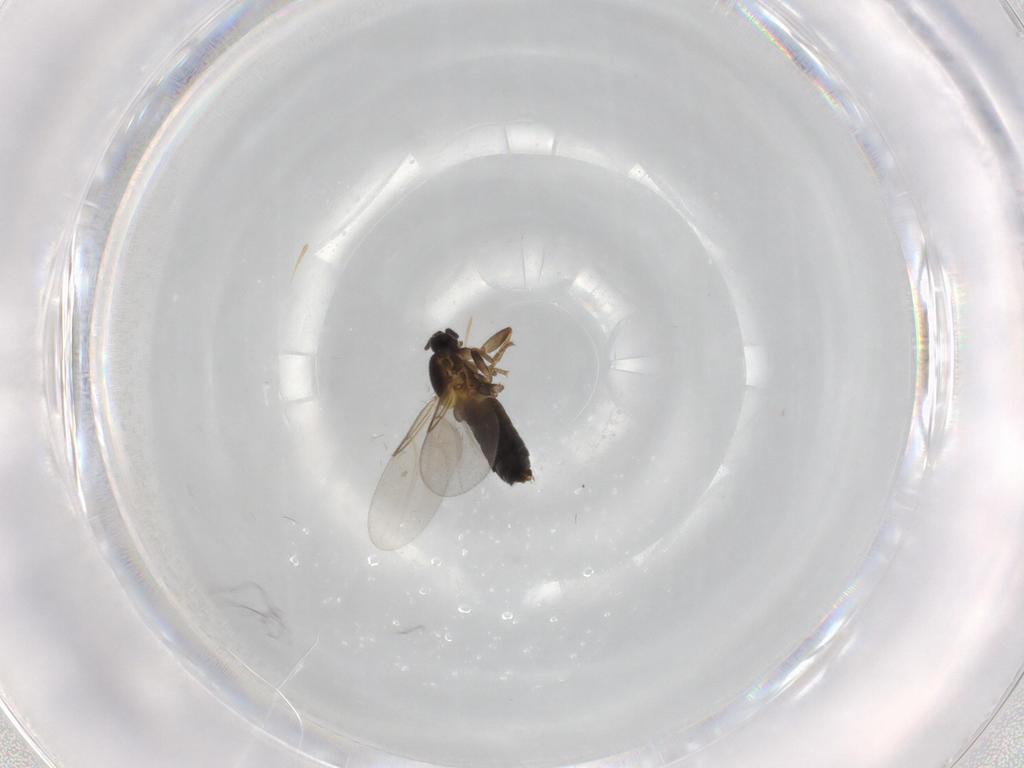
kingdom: Animalia
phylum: Arthropoda
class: Insecta
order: Diptera
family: Scatopsidae
